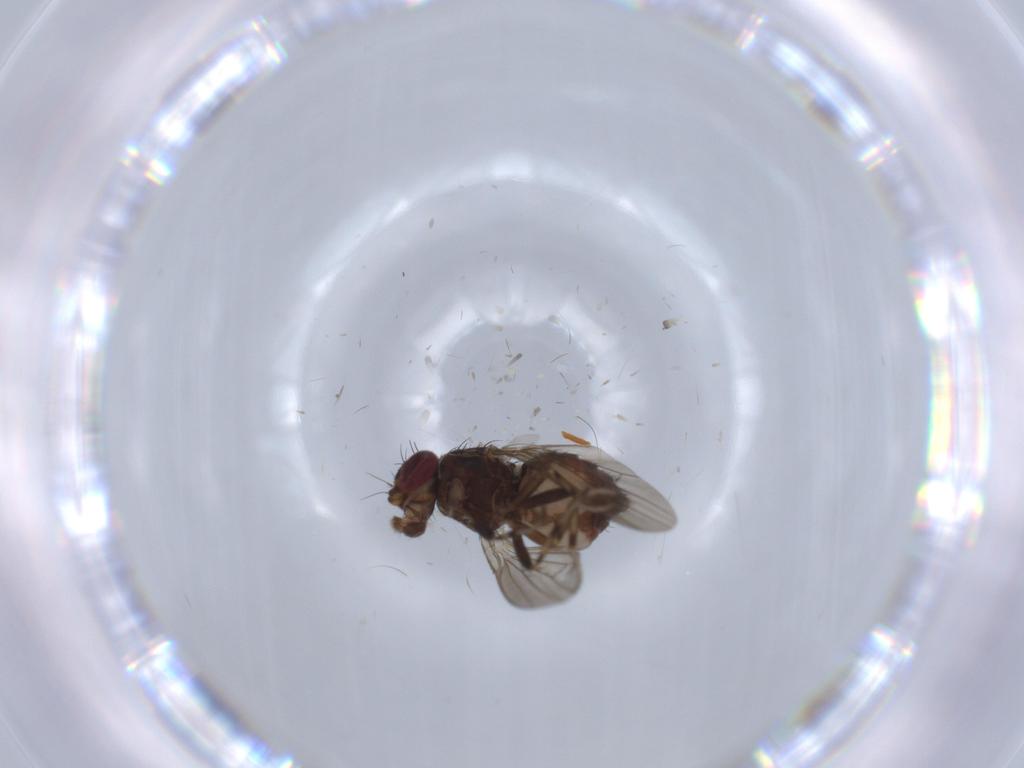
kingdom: Animalia
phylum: Arthropoda
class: Insecta
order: Diptera
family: Heleomyzidae
